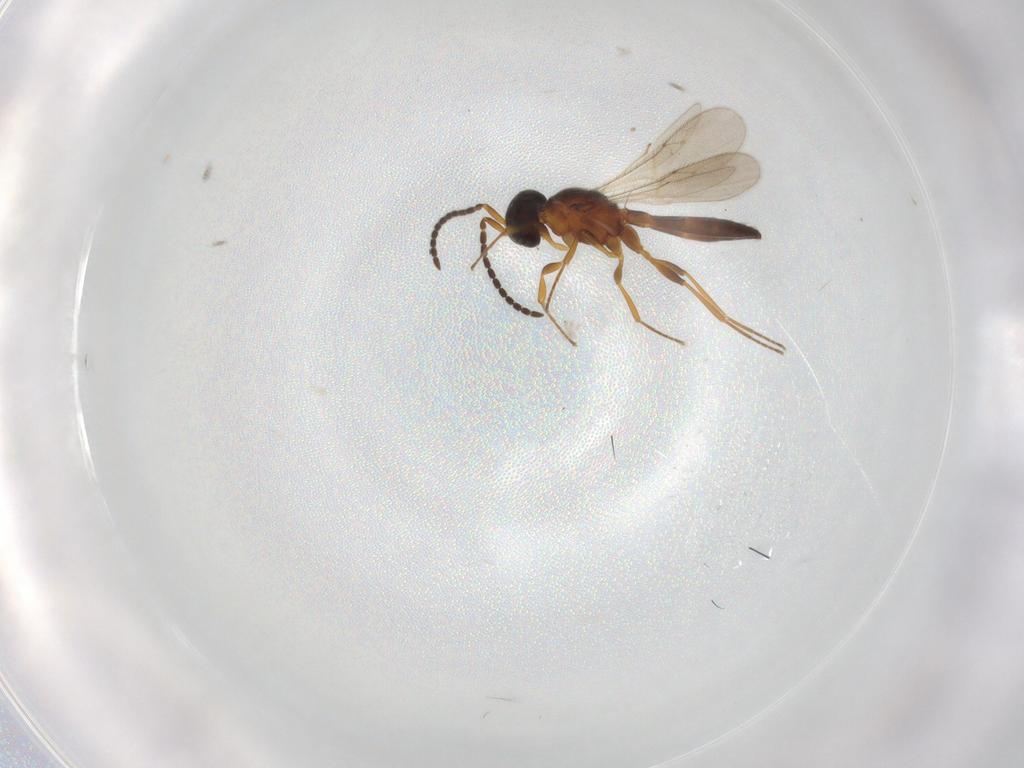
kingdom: Animalia
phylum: Arthropoda
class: Insecta
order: Hymenoptera
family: Scelionidae
